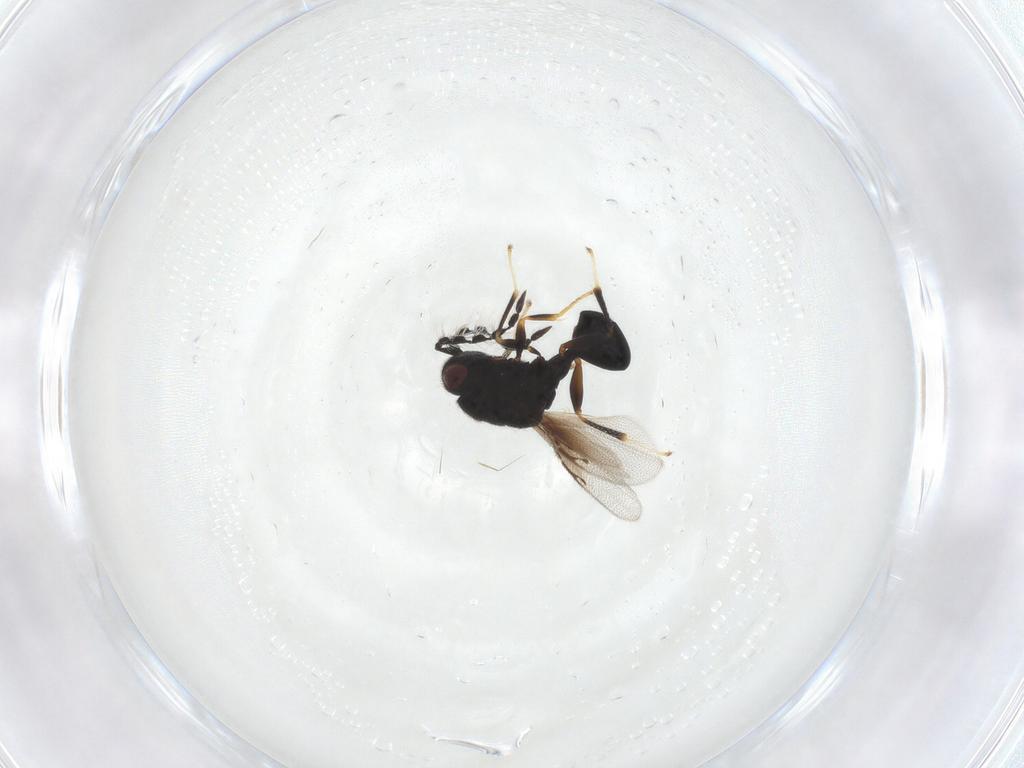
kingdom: Animalia
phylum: Arthropoda
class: Insecta
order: Hymenoptera
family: Eurytomidae
